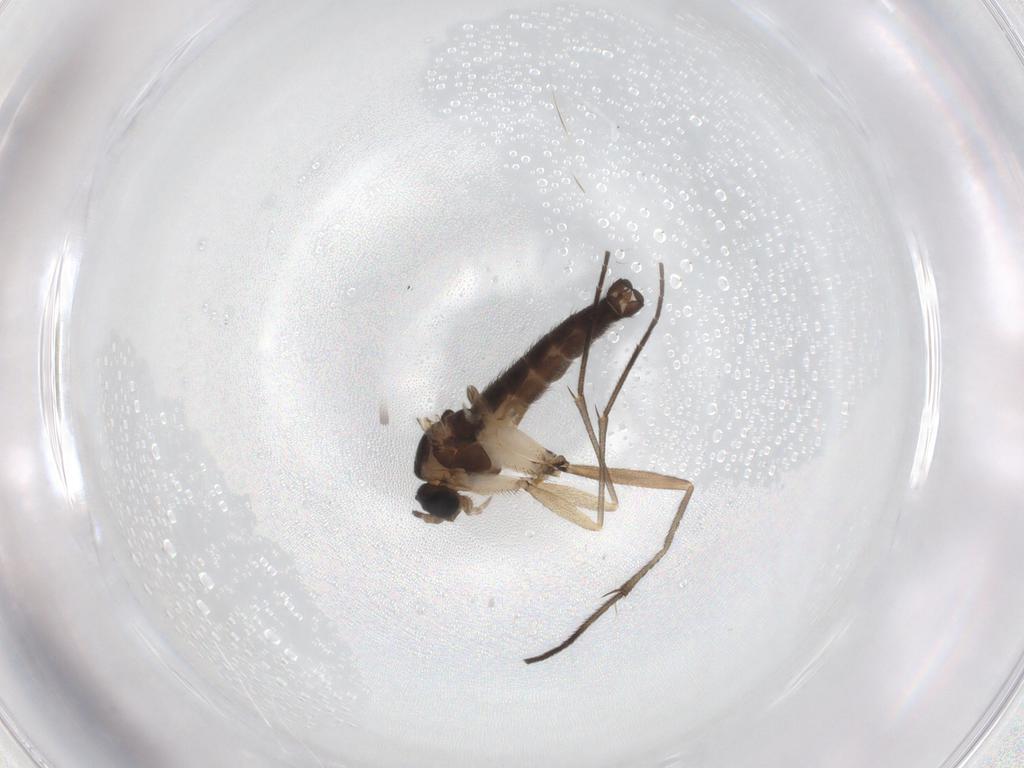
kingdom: Animalia
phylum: Arthropoda
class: Insecta
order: Diptera
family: Sciaridae
